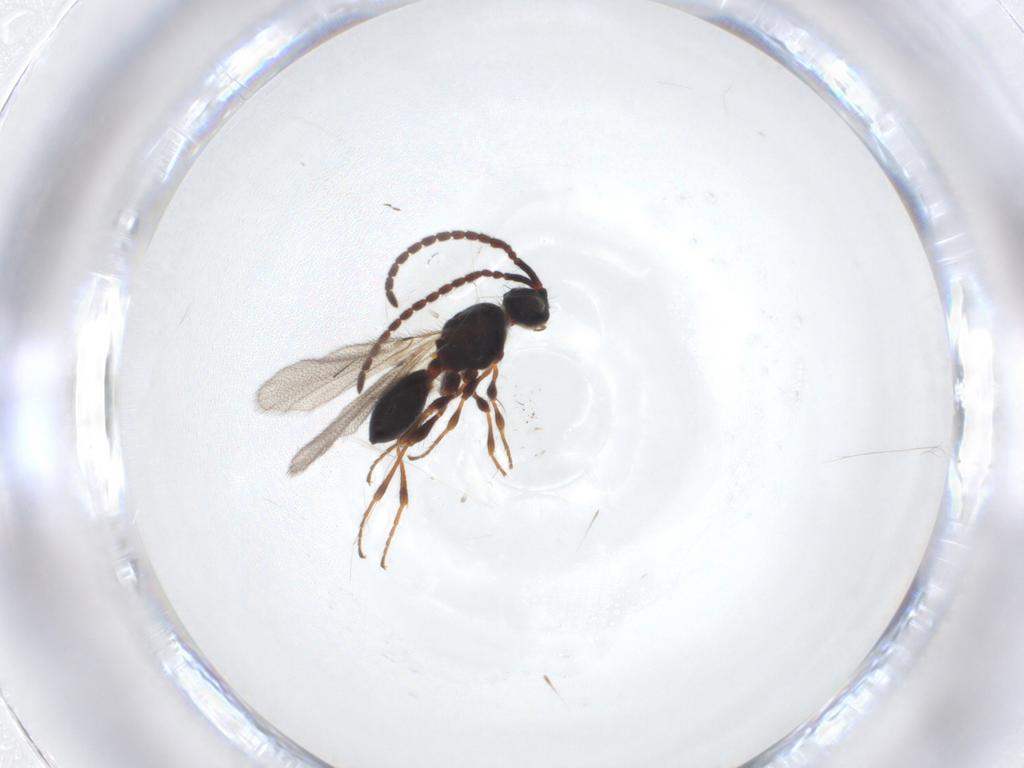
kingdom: Animalia
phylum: Arthropoda
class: Insecta
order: Hymenoptera
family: Diapriidae
